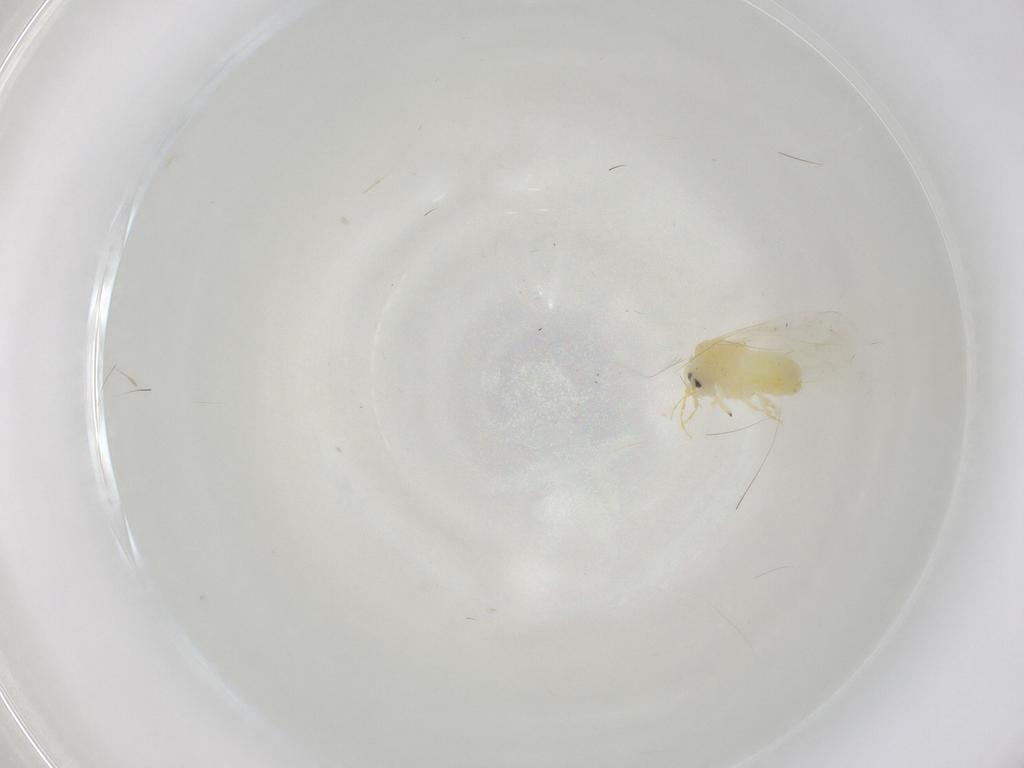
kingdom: Animalia
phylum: Arthropoda
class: Insecta
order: Hemiptera
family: Aleyrodidae
